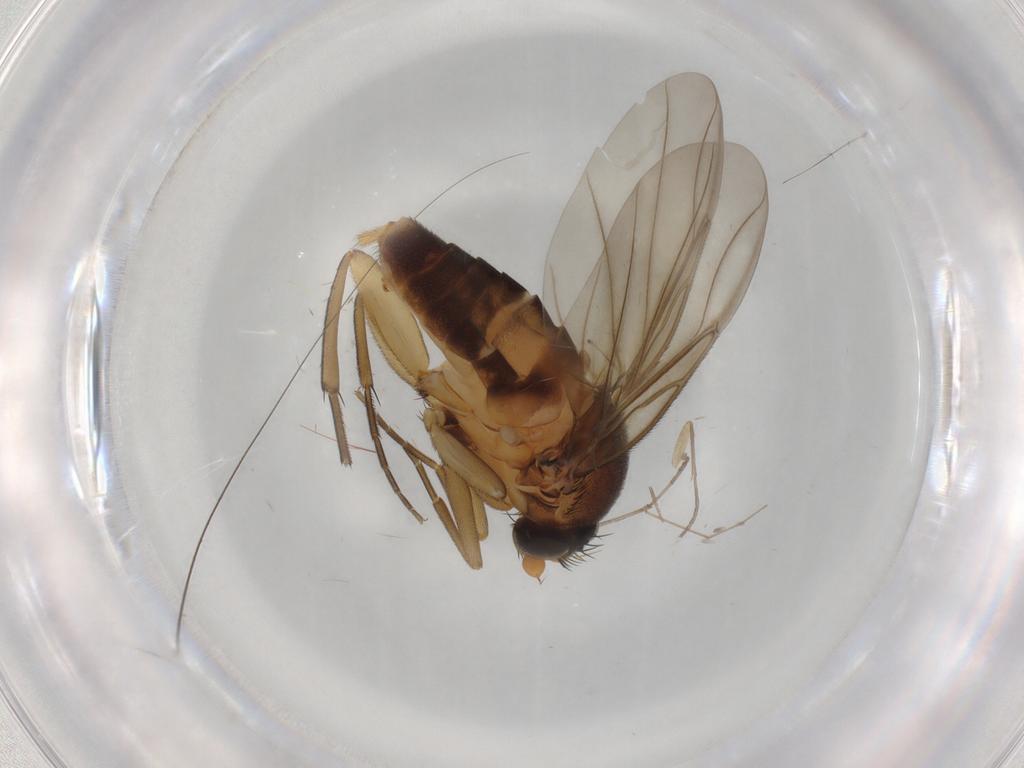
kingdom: Animalia
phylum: Arthropoda
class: Insecta
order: Diptera
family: Phoridae
